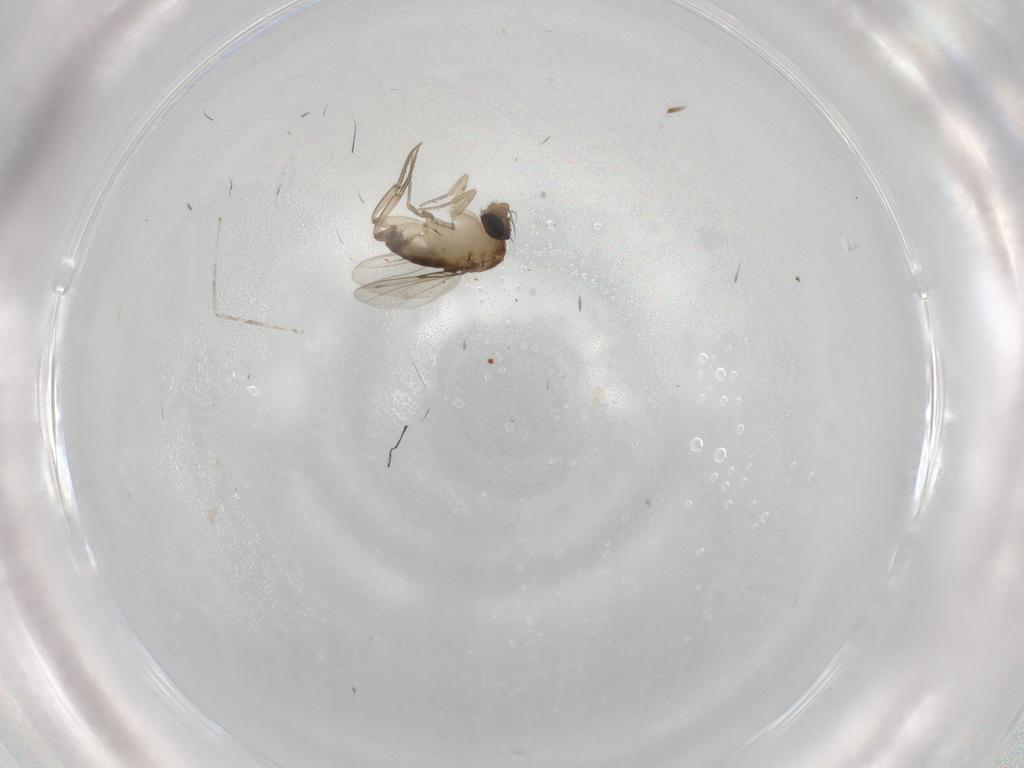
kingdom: Animalia
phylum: Arthropoda
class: Insecta
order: Diptera
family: Phoridae
